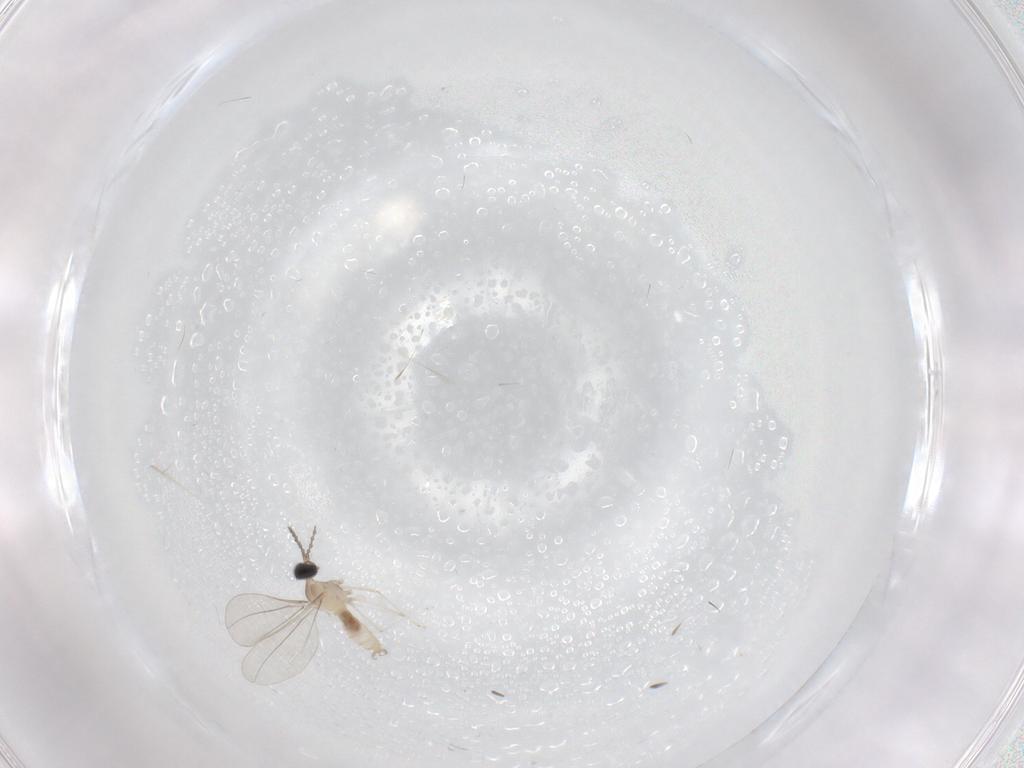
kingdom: Animalia
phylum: Arthropoda
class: Insecta
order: Diptera
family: Cecidomyiidae
